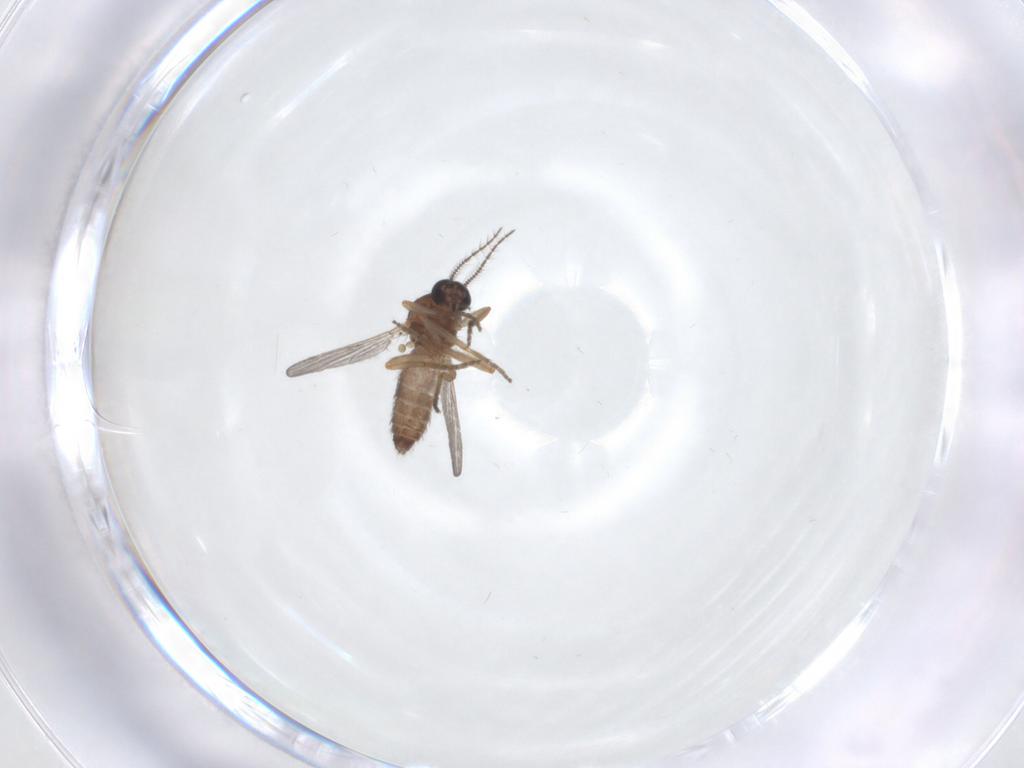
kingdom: Animalia
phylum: Arthropoda
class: Insecta
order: Diptera
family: Ceratopogonidae
